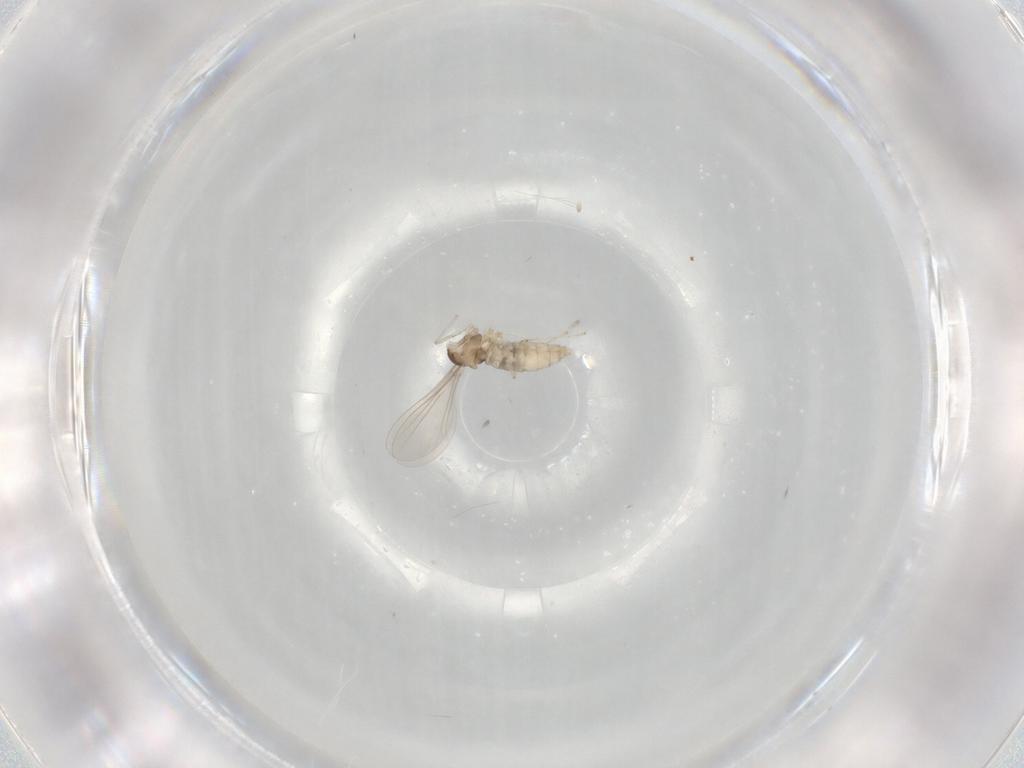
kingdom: Animalia
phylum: Arthropoda
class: Insecta
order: Diptera
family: Cecidomyiidae
